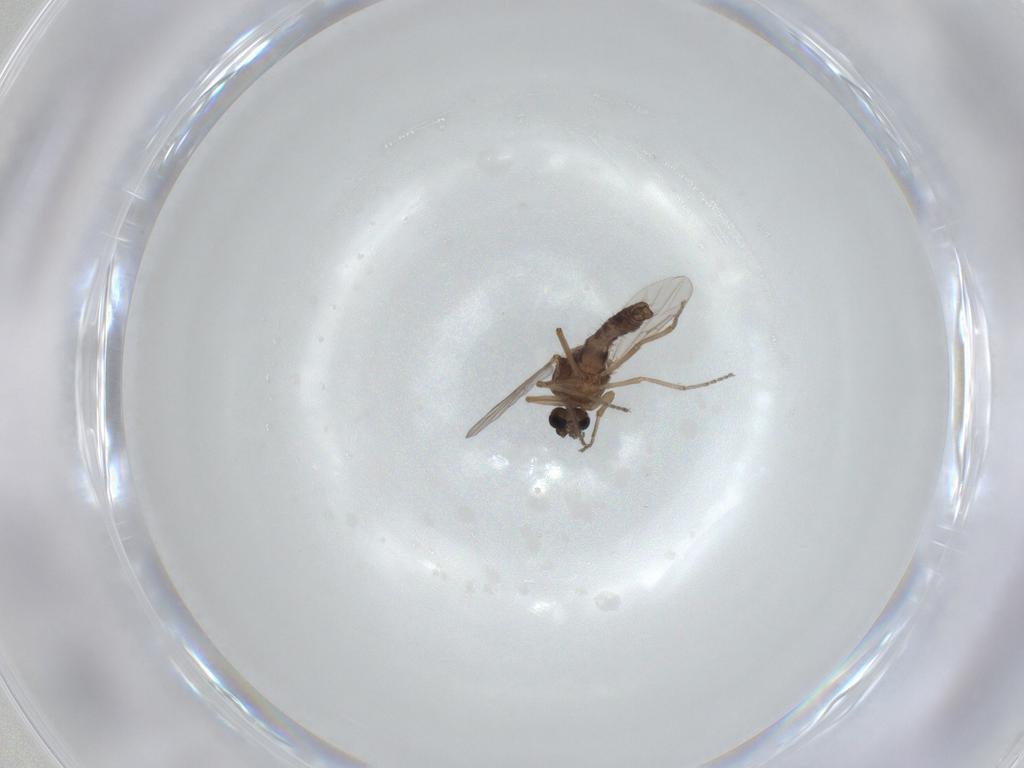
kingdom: Animalia
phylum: Arthropoda
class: Insecta
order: Diptera
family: Ceratopogonidae
